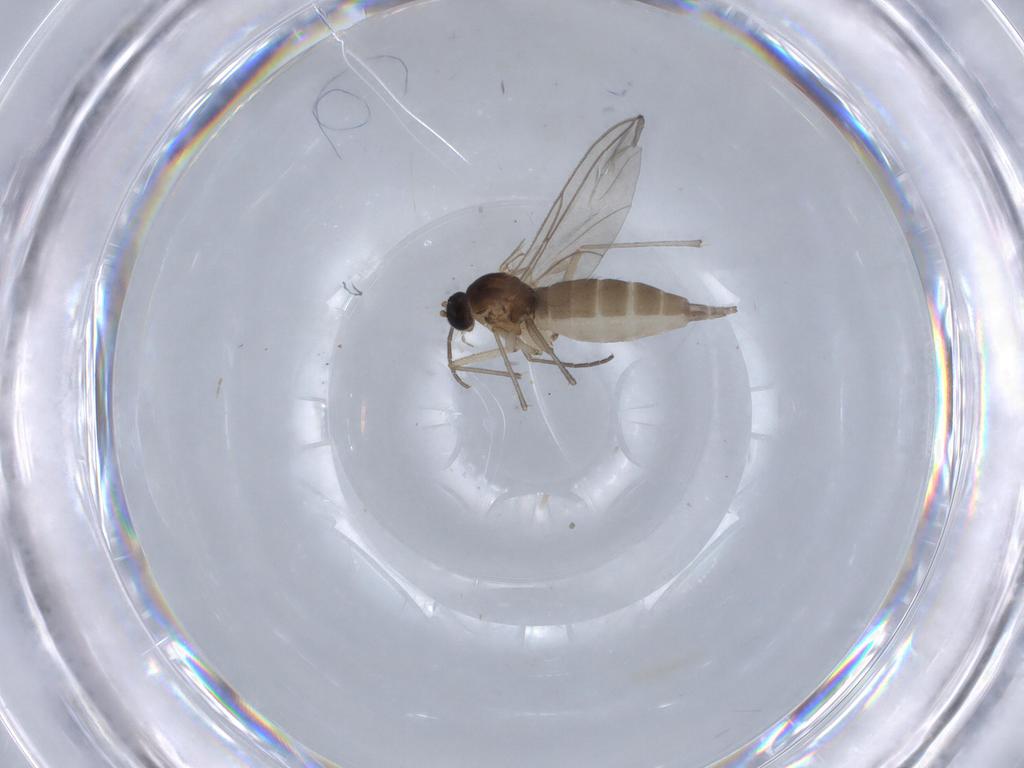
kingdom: Animalia
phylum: Arthropoda
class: Insecta
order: Diptera
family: Sciaridae
